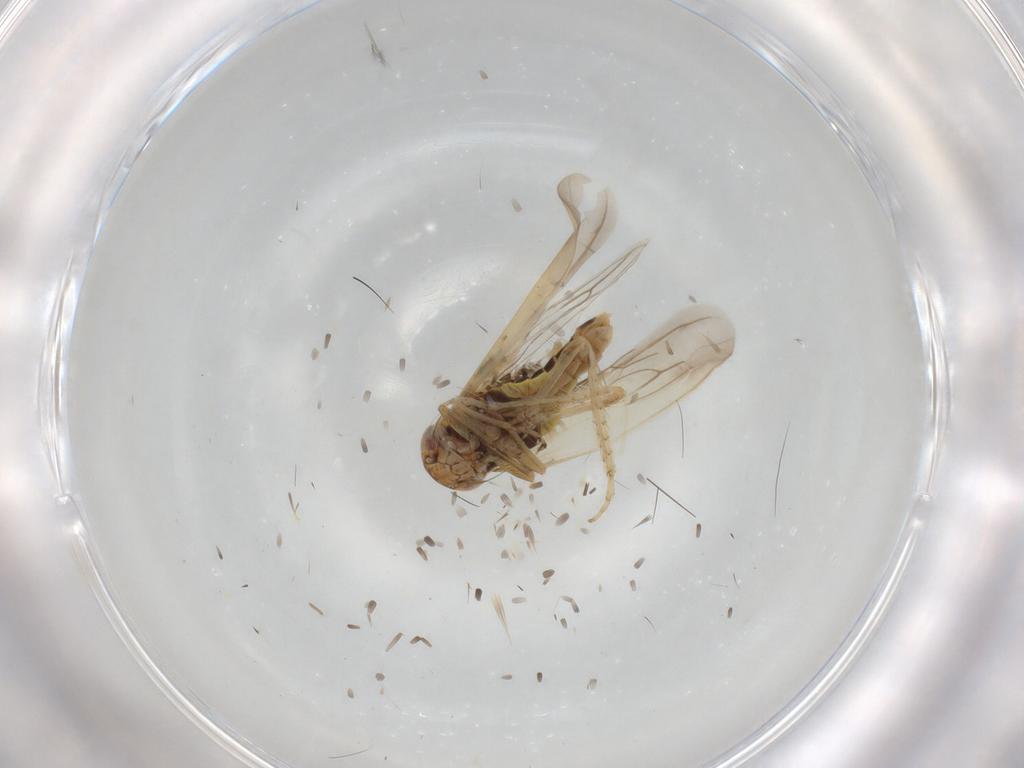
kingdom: Animalia
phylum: Arthropoda
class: Insecta
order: Hemiptera
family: Cicadellidae
